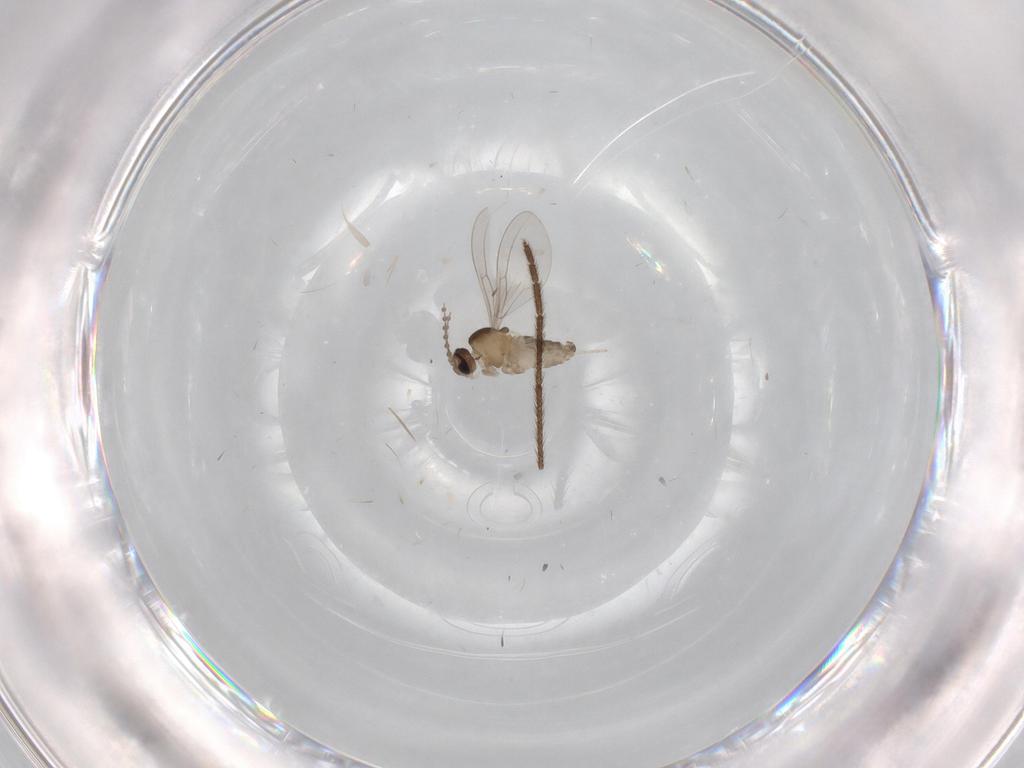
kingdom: Animalia
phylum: Arthropoda
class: Insecta
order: Diptera
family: Limoniidae
